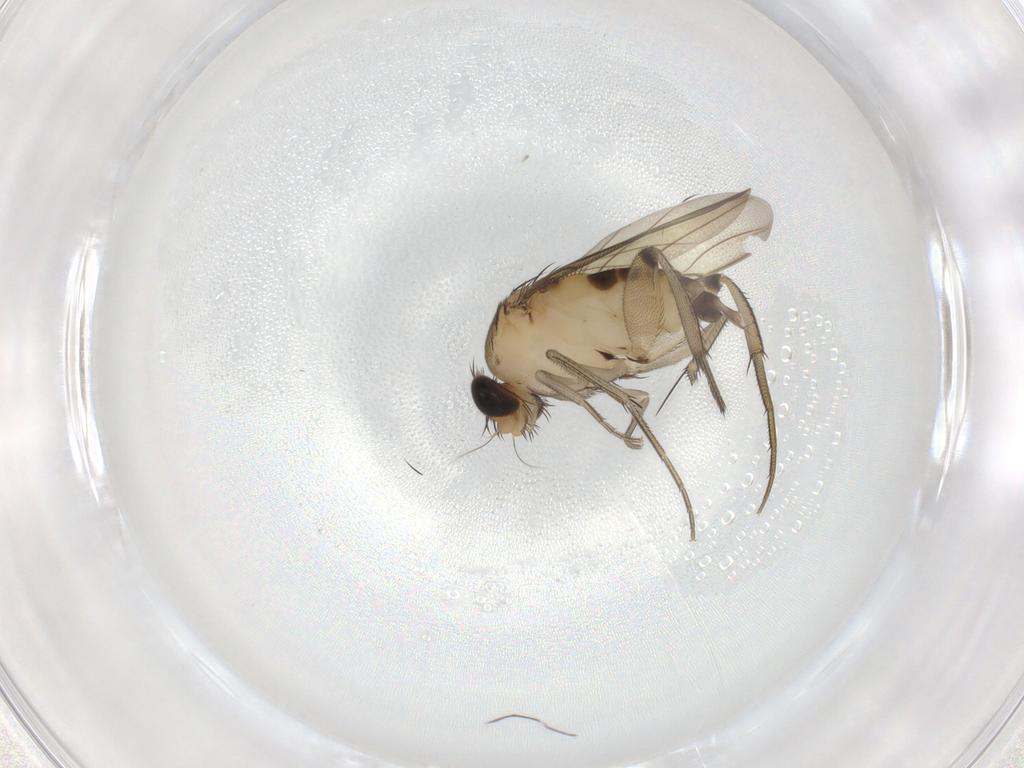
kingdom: Animalia
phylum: Arthropoda
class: Insecta
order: Diptera
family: Phoridae
